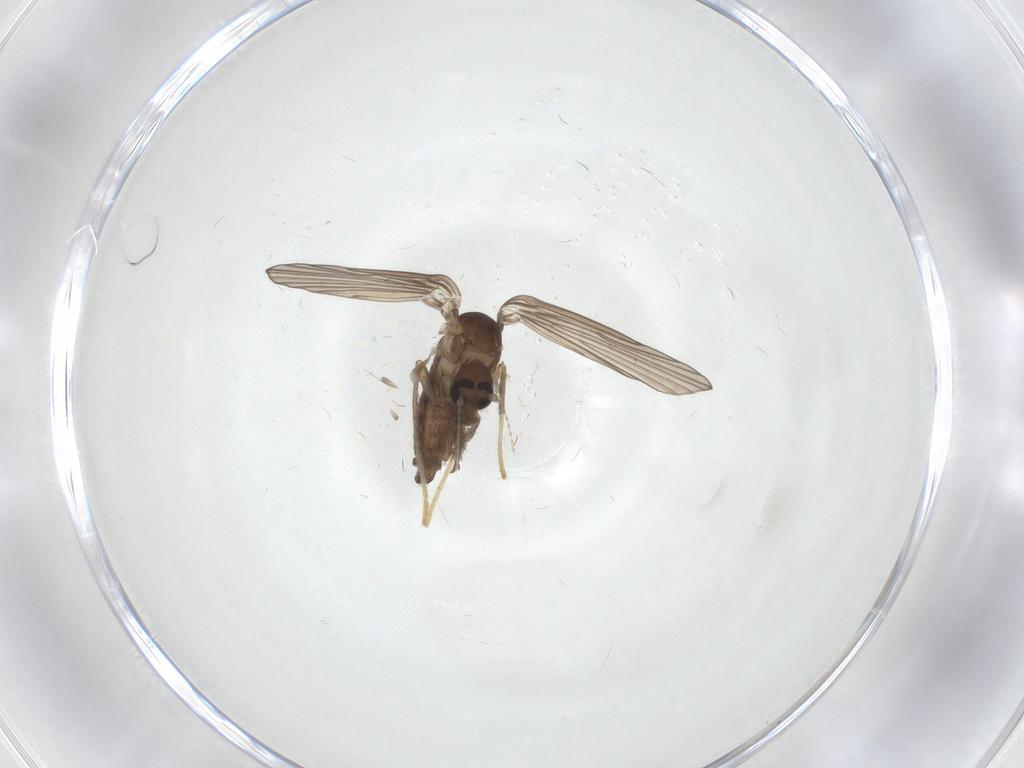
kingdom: Animalia
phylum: Arthropoda
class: Insecta
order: Diptera
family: Psychodidae
